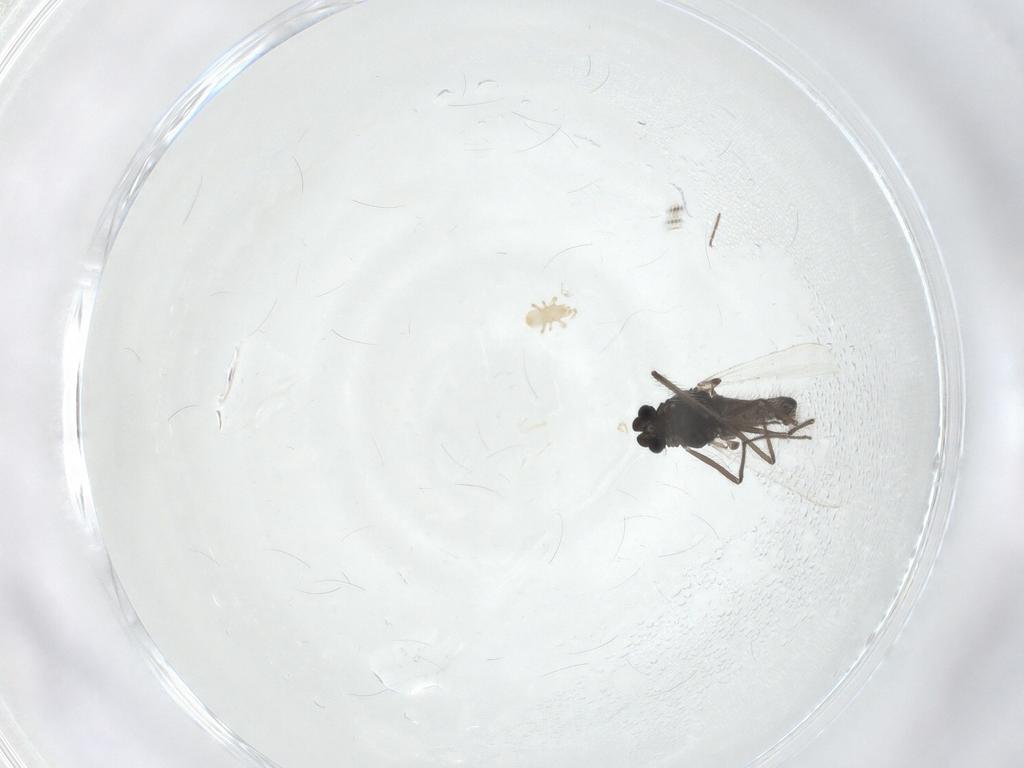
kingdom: Animalia
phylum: Arthropoda
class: Insecta
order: Diptera
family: Chironomidae
